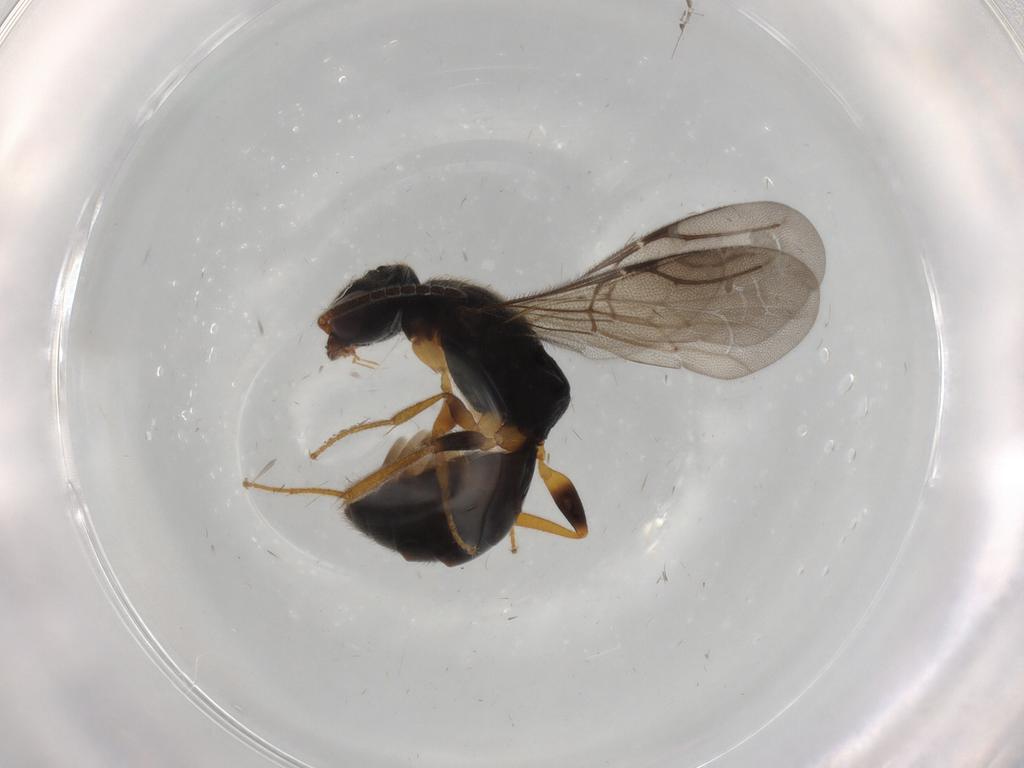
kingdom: Animalia
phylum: Arthropoda
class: Insecta
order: Hymenoptera
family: Bethylidae
